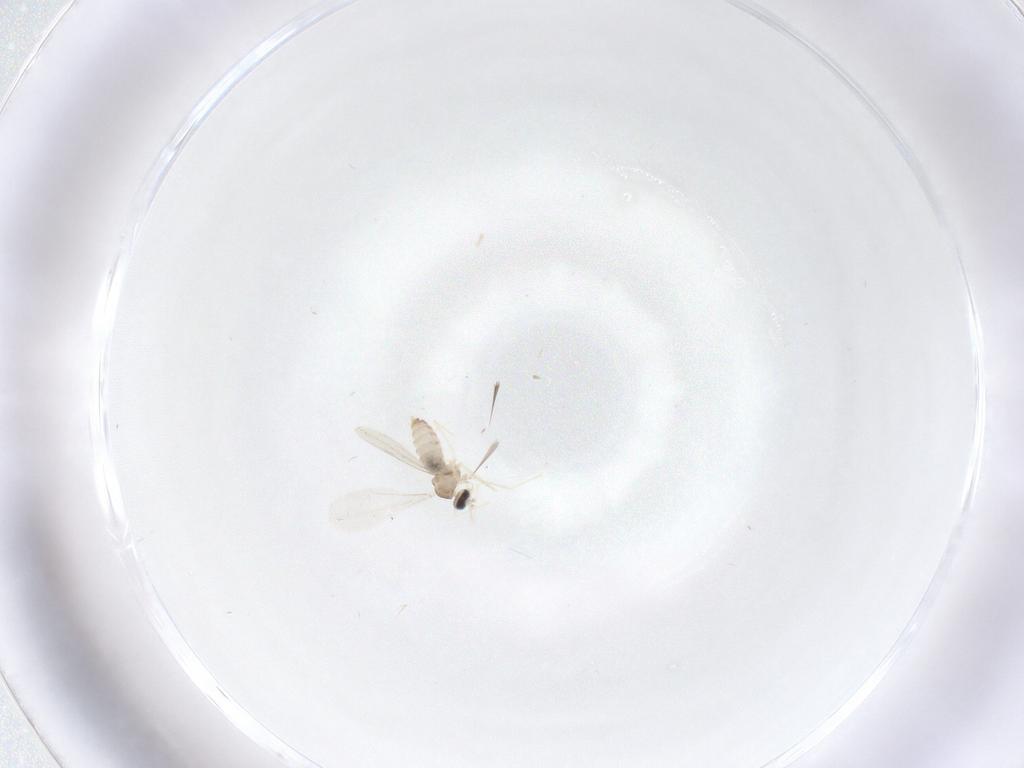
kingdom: Animalia
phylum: Arthropoda
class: Insecta
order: Diptera
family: Cecidomyiidae
